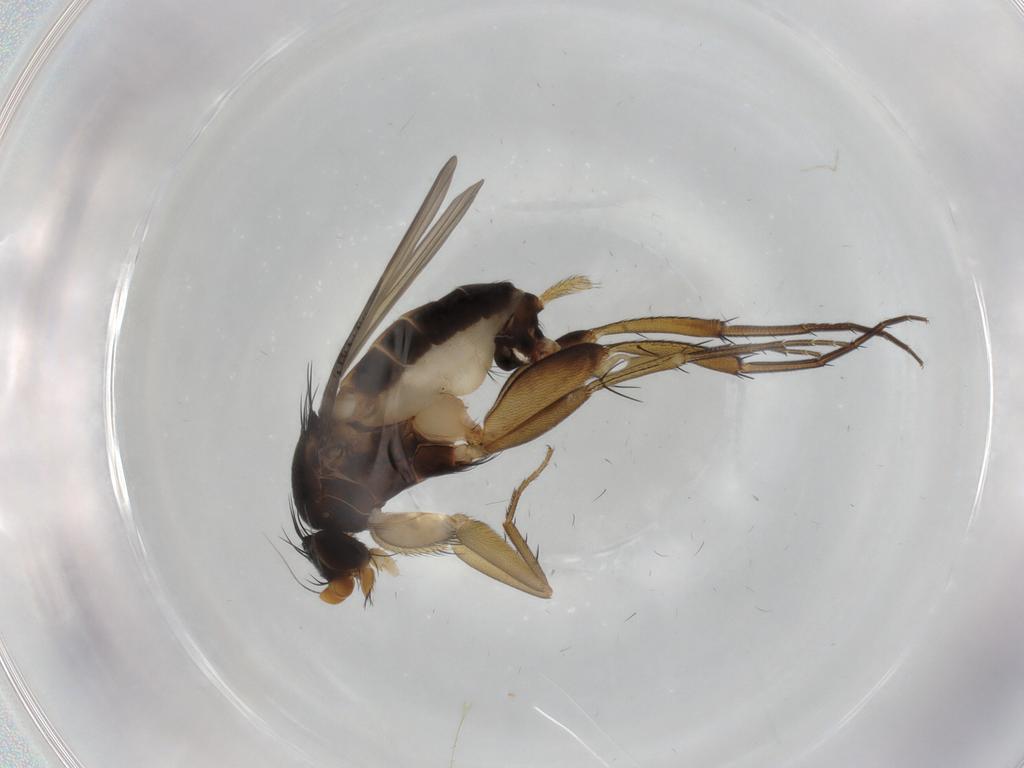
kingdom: Animalia
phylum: Arthropoda
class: Insecta
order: Diptera
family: Phoridae
